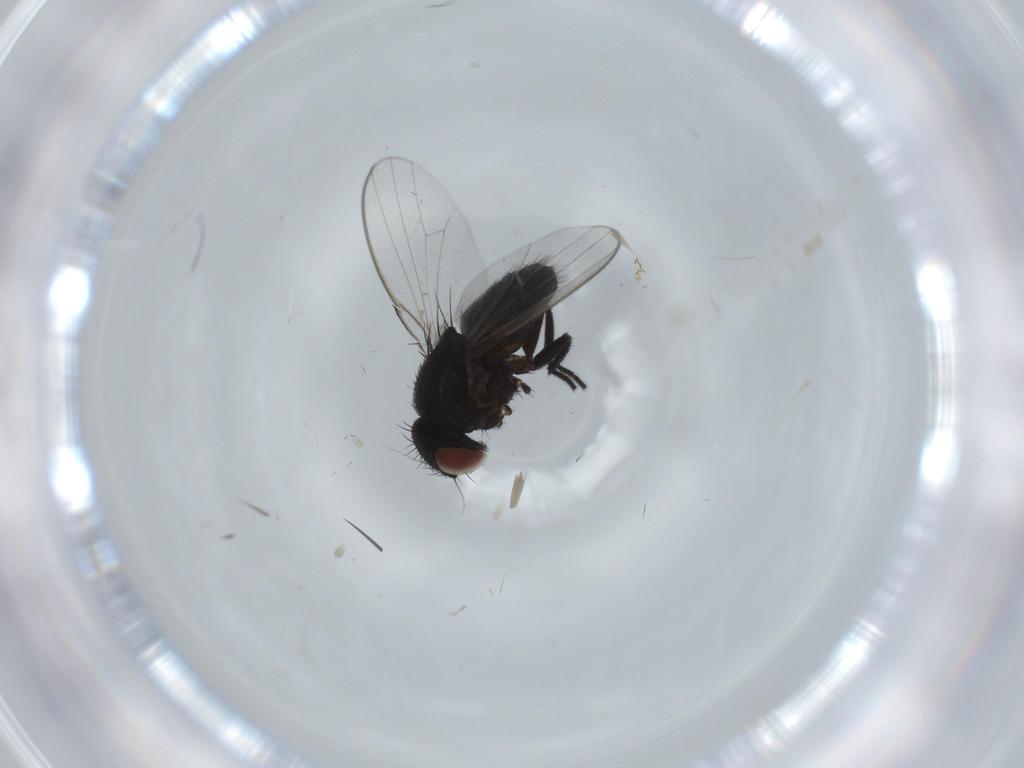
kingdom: Animalia
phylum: Arthropoda
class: Insecta
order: Diptera
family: Milichiidae
